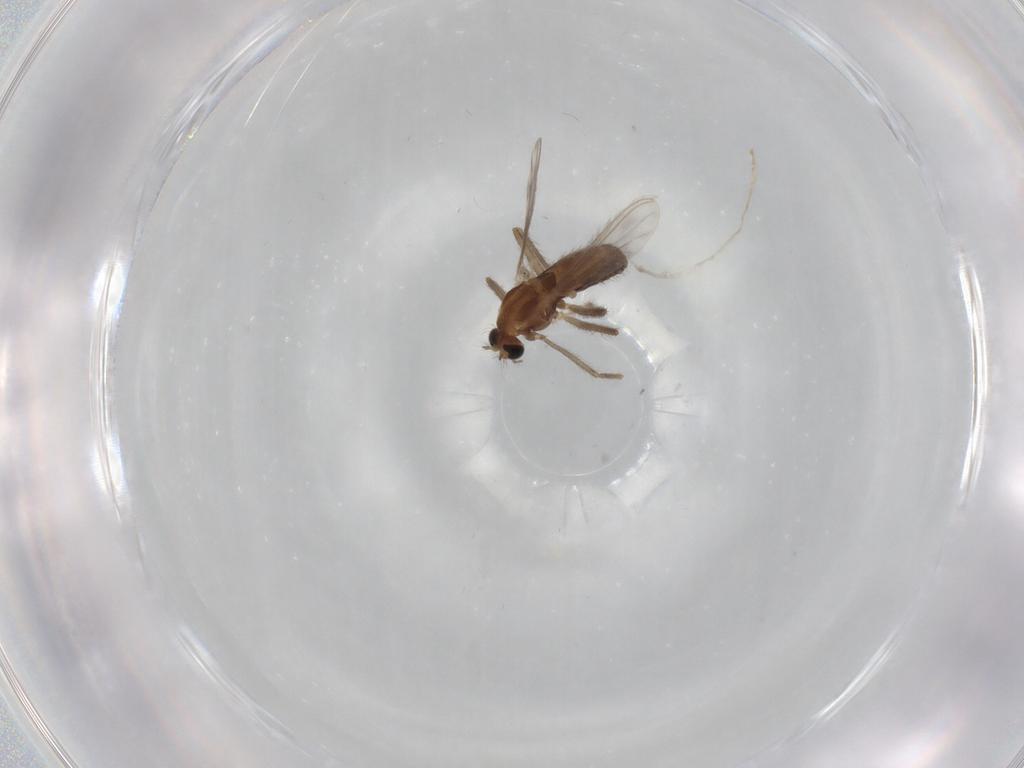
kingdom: Animalia
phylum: Arthropoda
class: Insecta
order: Diptera
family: Chironomidae
